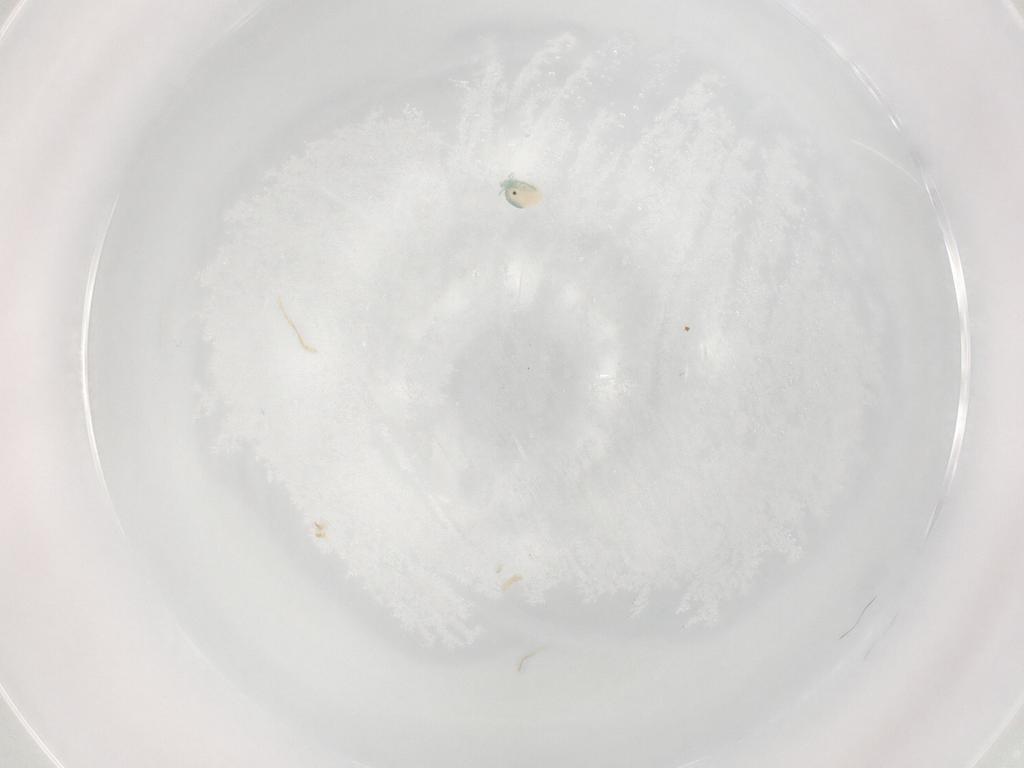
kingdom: Animalia
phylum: Arthropoda
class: Arachnida
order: Trombidiformes
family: Arrenuridae
